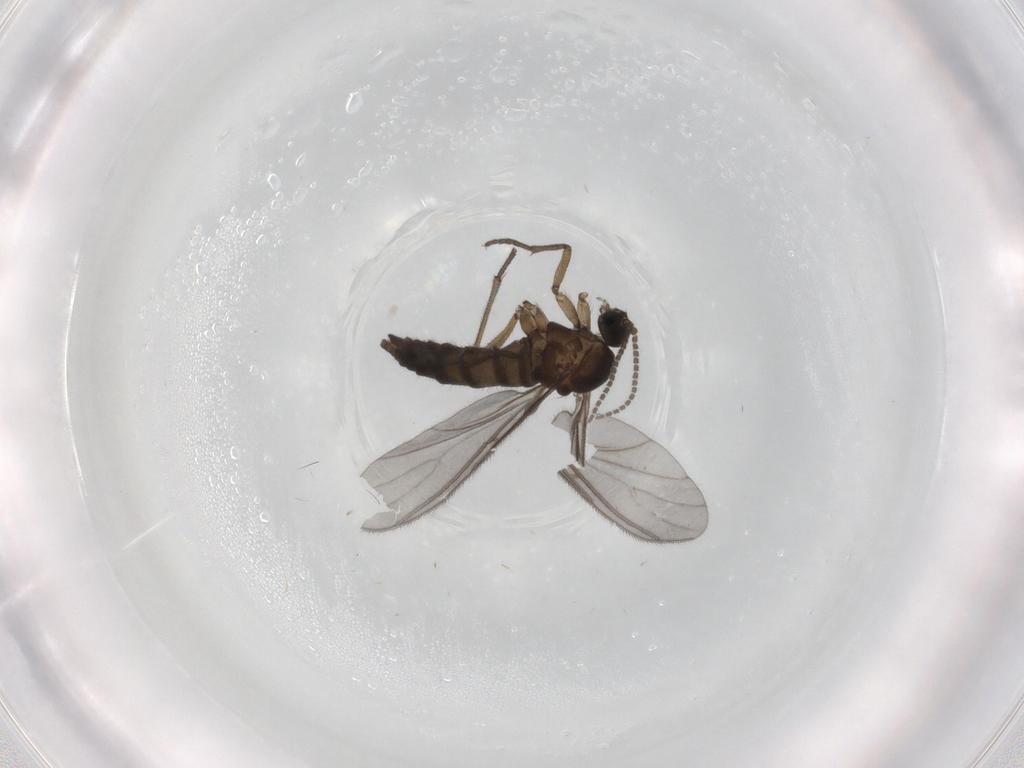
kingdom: Animalia
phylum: Arthropoda
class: Insecta
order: Diptera
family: Sciaridae
